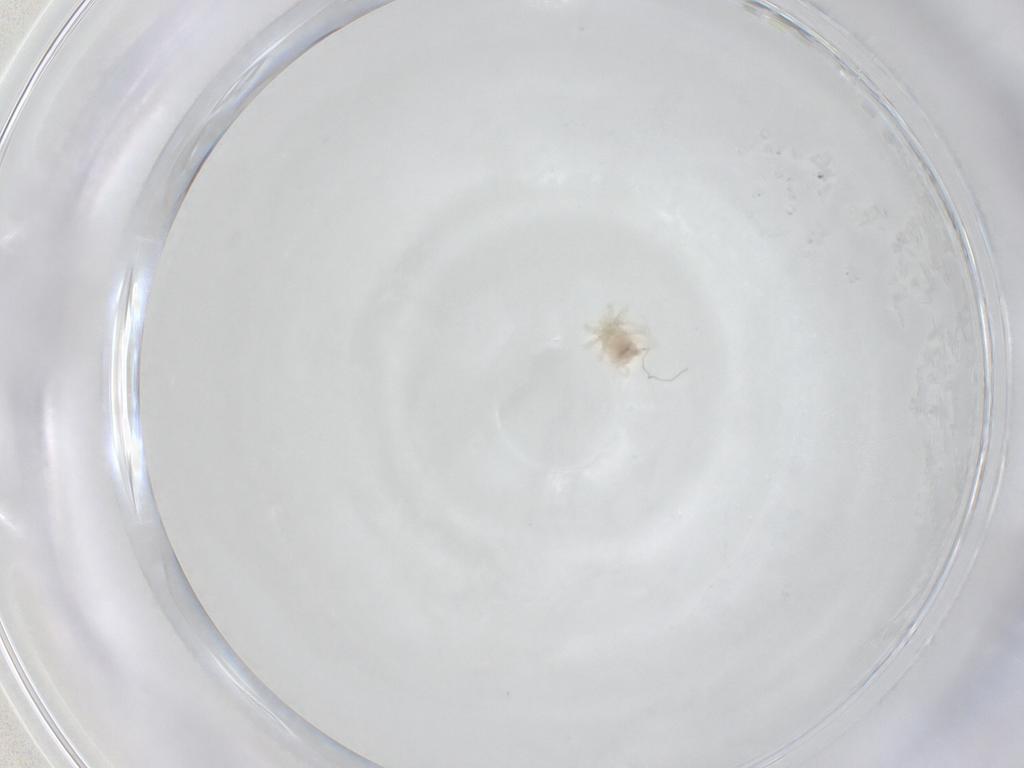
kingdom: Animalia
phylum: Arthropoda
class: Arachnida
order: Trombidiformes
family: Anystidae
